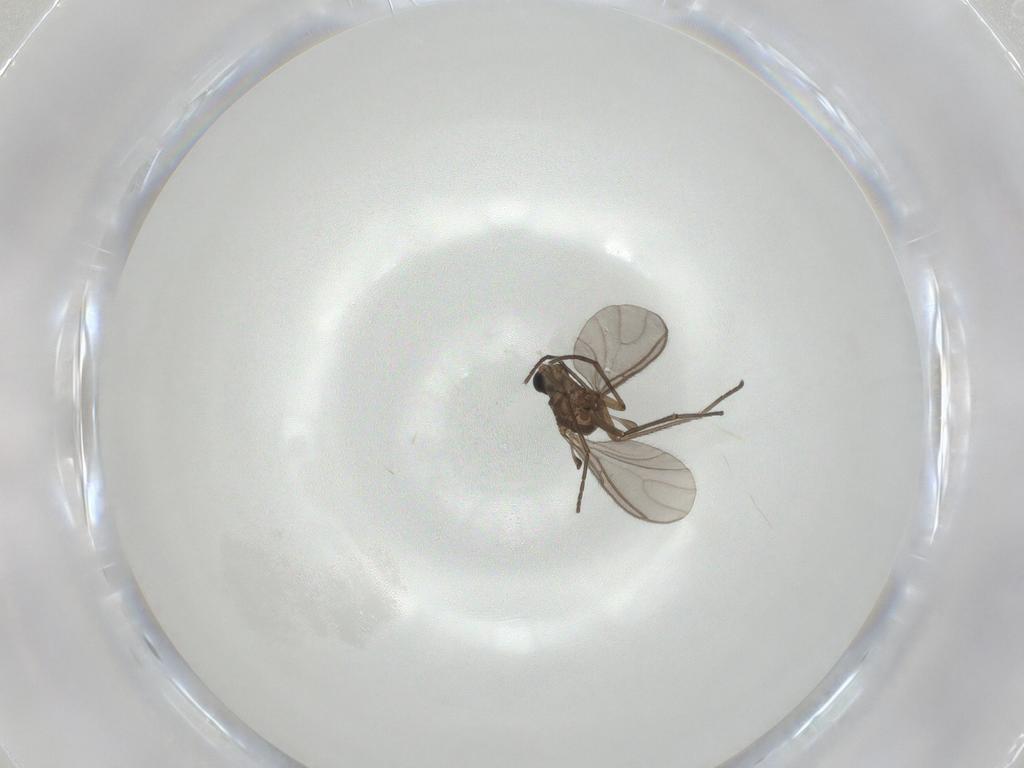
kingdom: Animalia
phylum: Arthropoda
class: Insecta
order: Diptera
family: Sciaridae
